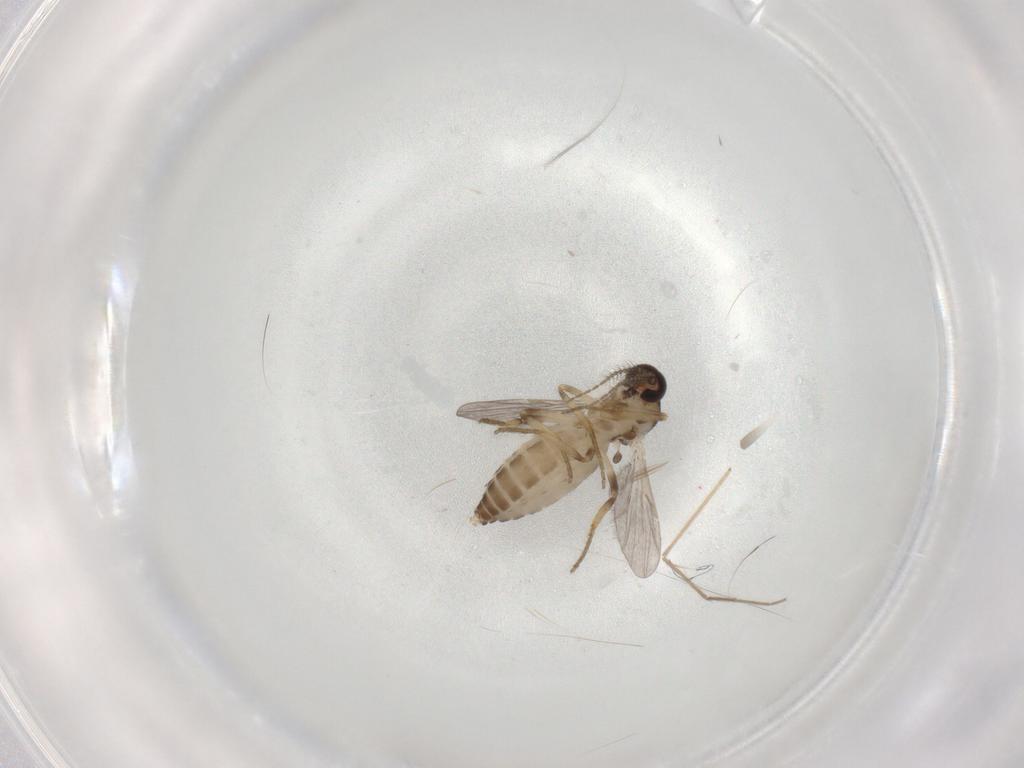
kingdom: Animalia
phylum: Arthropoda
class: Insecta
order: Diptera
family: Ceratopogonidae
